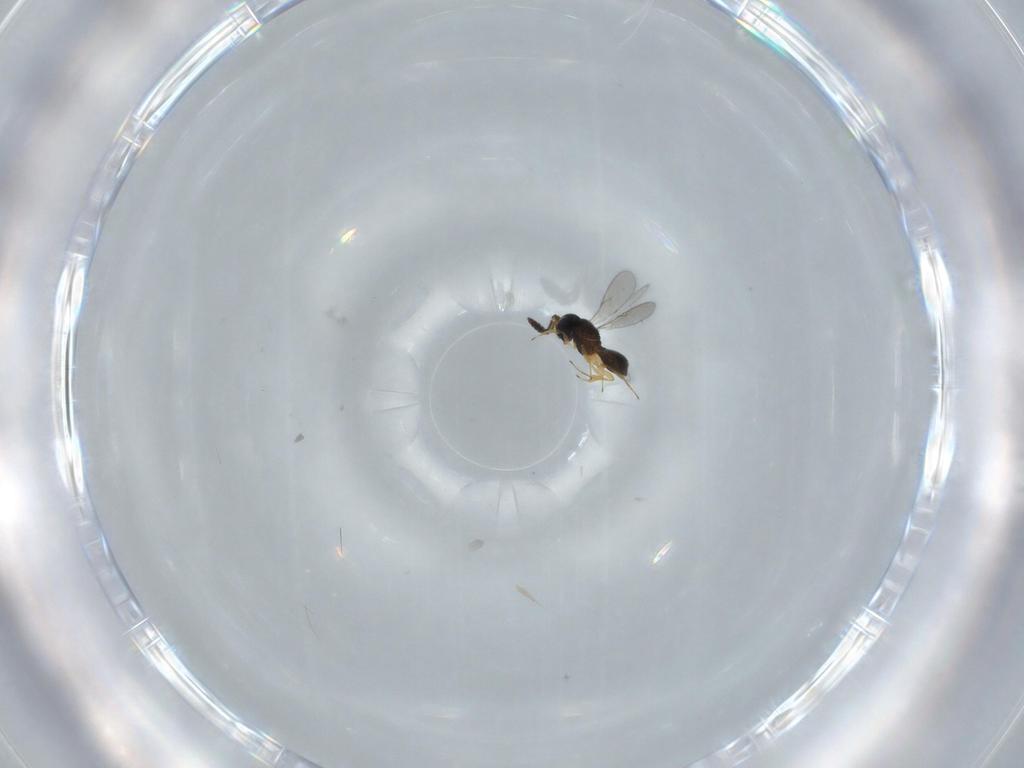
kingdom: Animalia
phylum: Arthropoda
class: Insecta
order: Hymenoptera
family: Scelionidae
